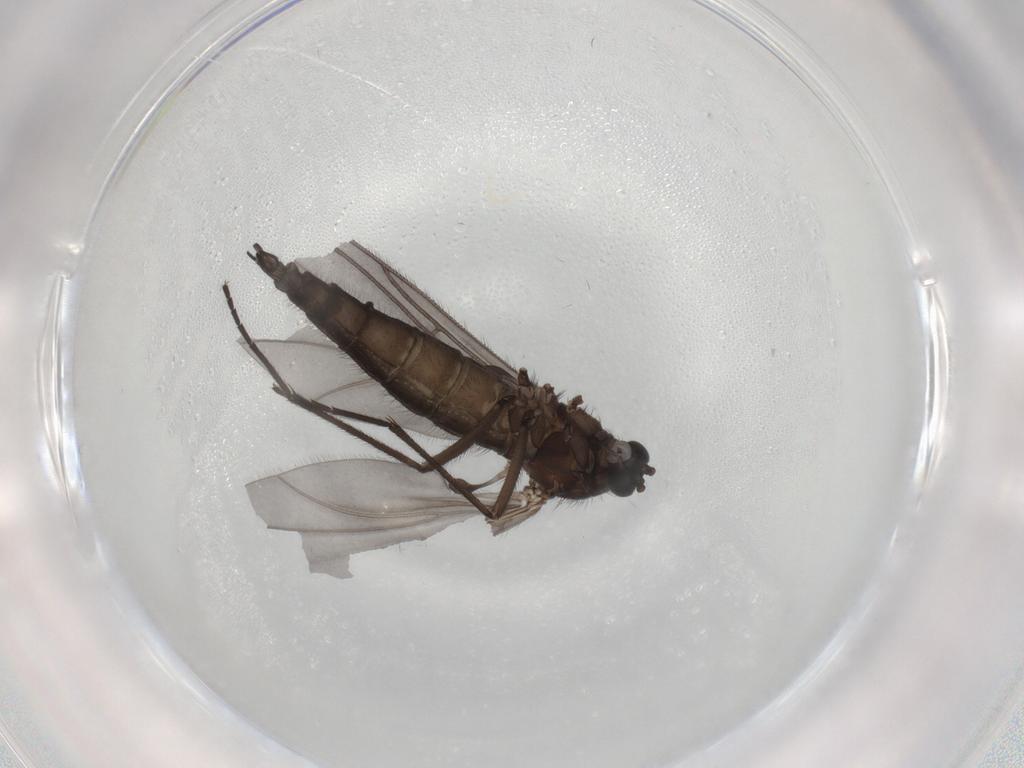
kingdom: Animalia
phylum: Arthropoda
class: Insecta
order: Diptera
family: Sciaridae
